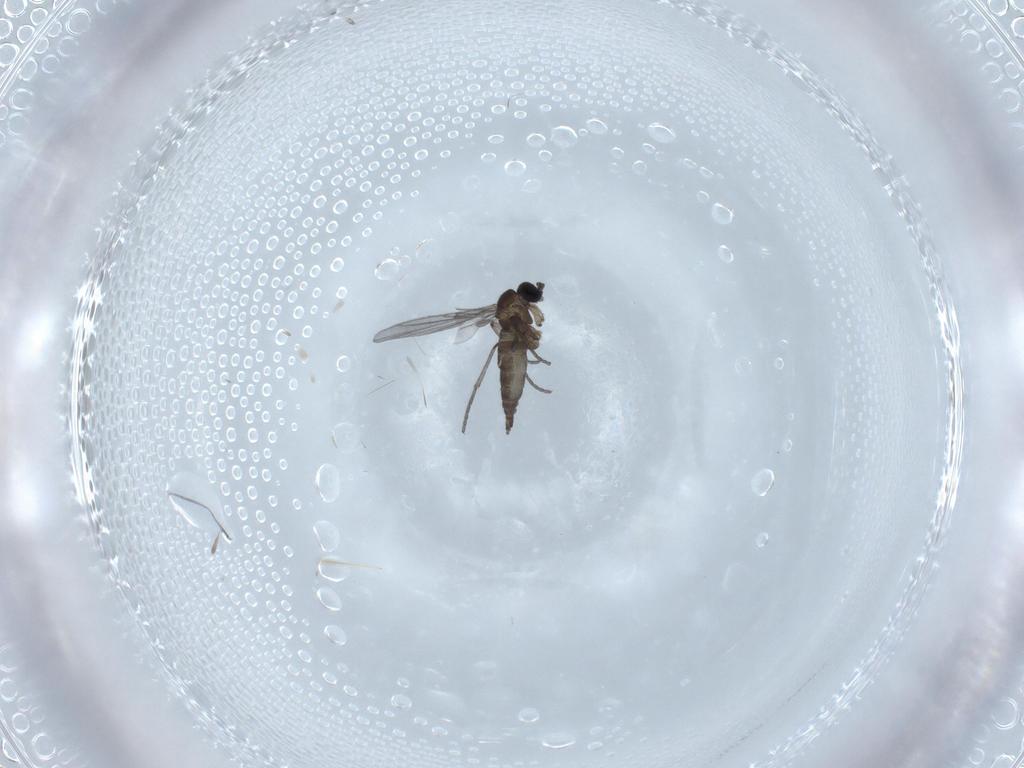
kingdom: Animalia
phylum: Arthropoda
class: Insecta
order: Diptera
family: Cecidomyiidae
